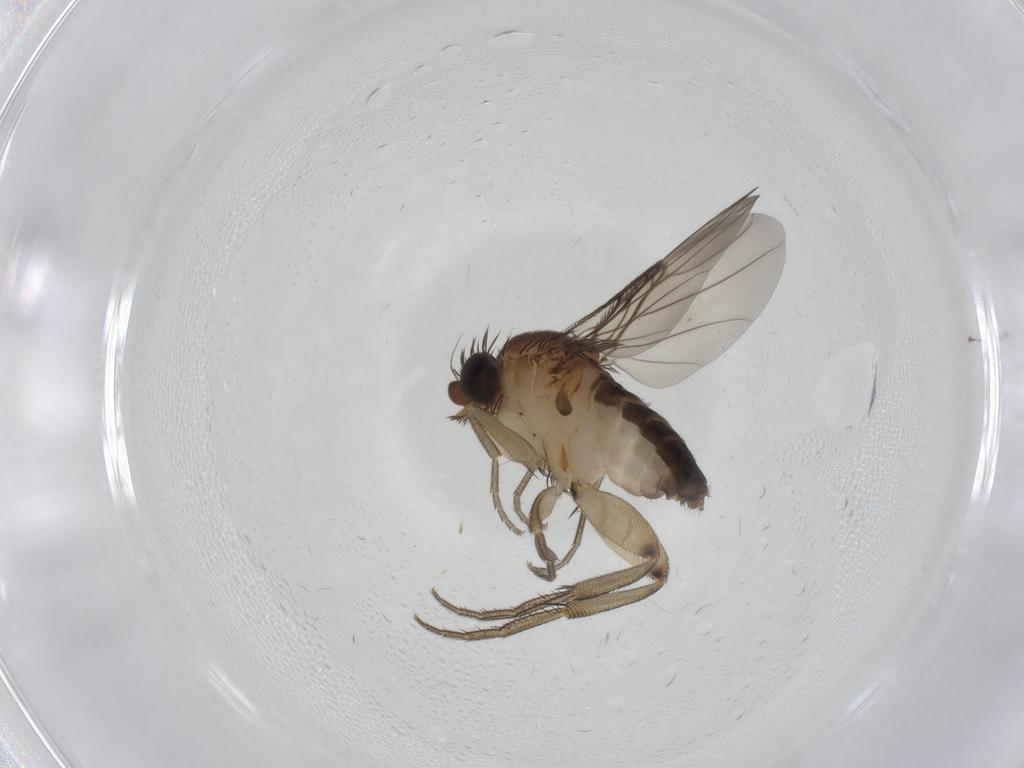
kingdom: Animalia
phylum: Arthropoda
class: Insecta
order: Diptera
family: Phoridae
